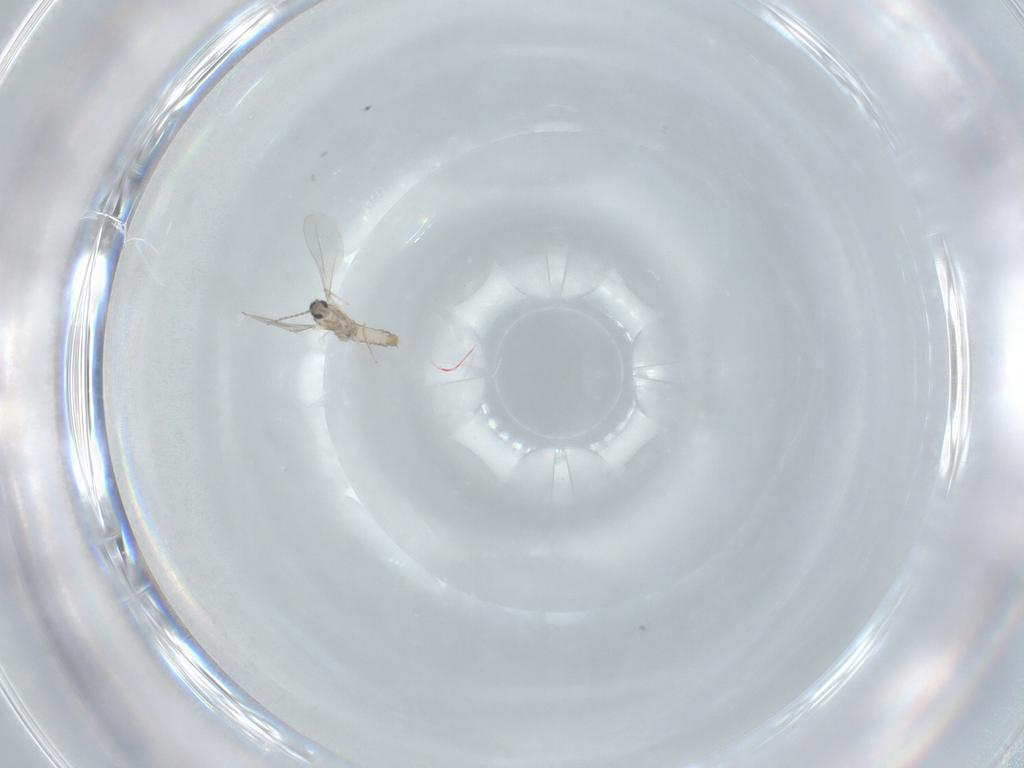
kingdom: Animalia
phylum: Arthropoda
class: Insecta
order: Diptera
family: Cecidomyiidae
